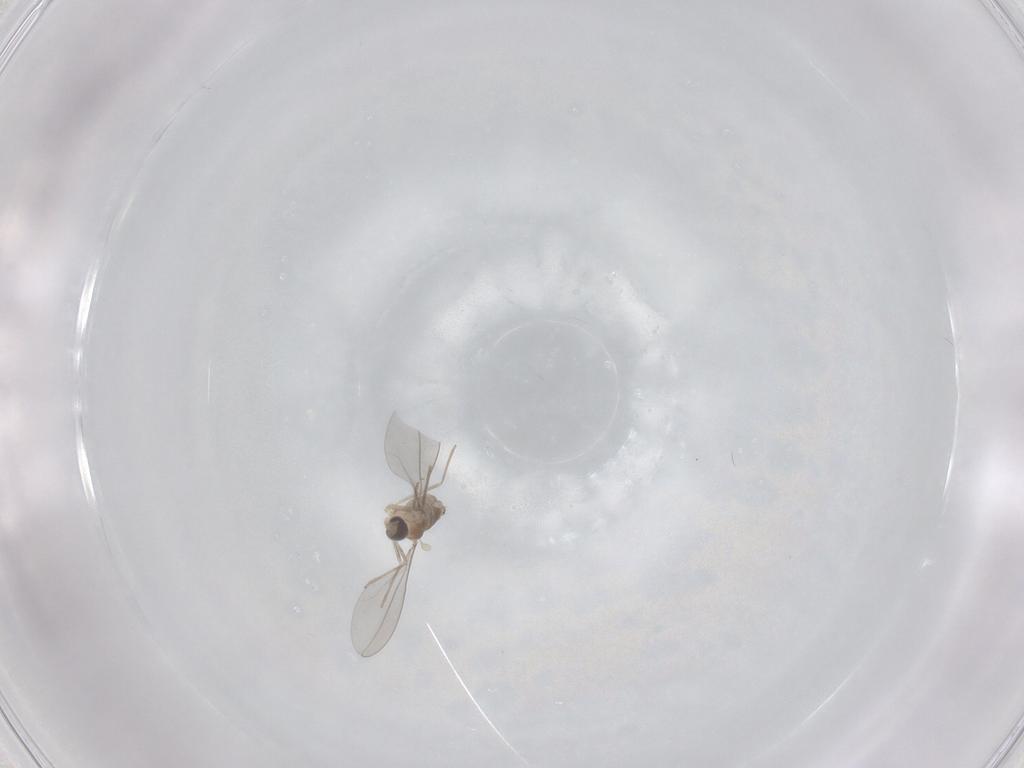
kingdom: Animalia
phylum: Arthropoda
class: Insecta
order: Diptera
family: Cecidomyiidae
